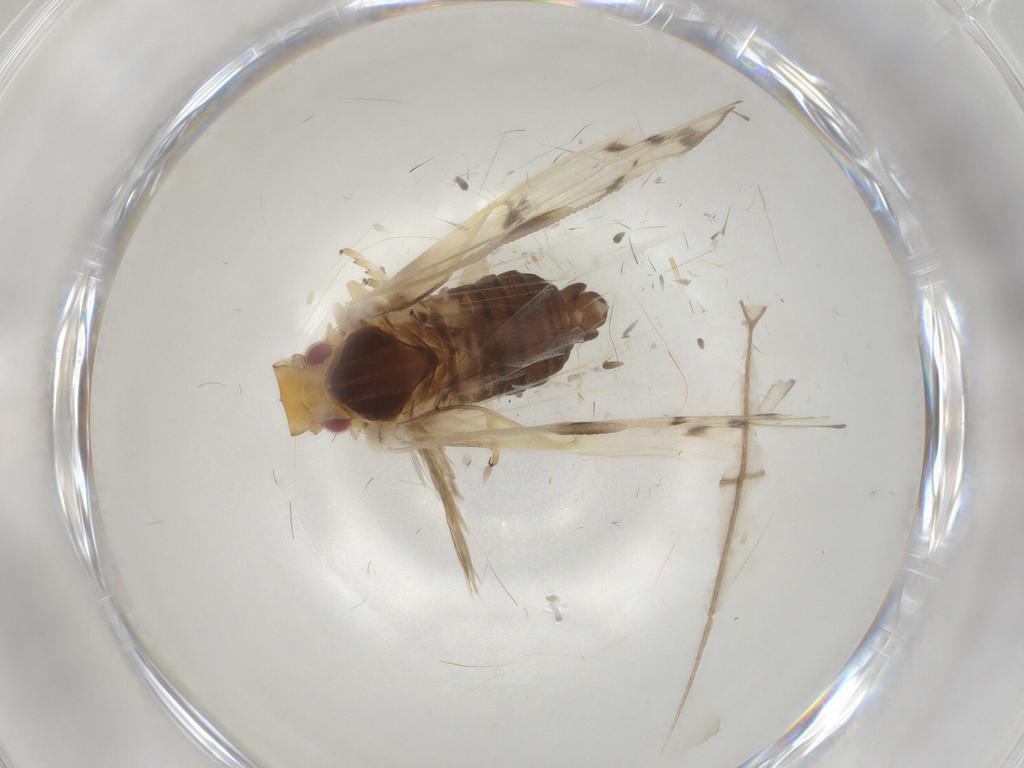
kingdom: Animalia
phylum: Arthropoda
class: Insecta
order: Hemiptera
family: Cixiidae
